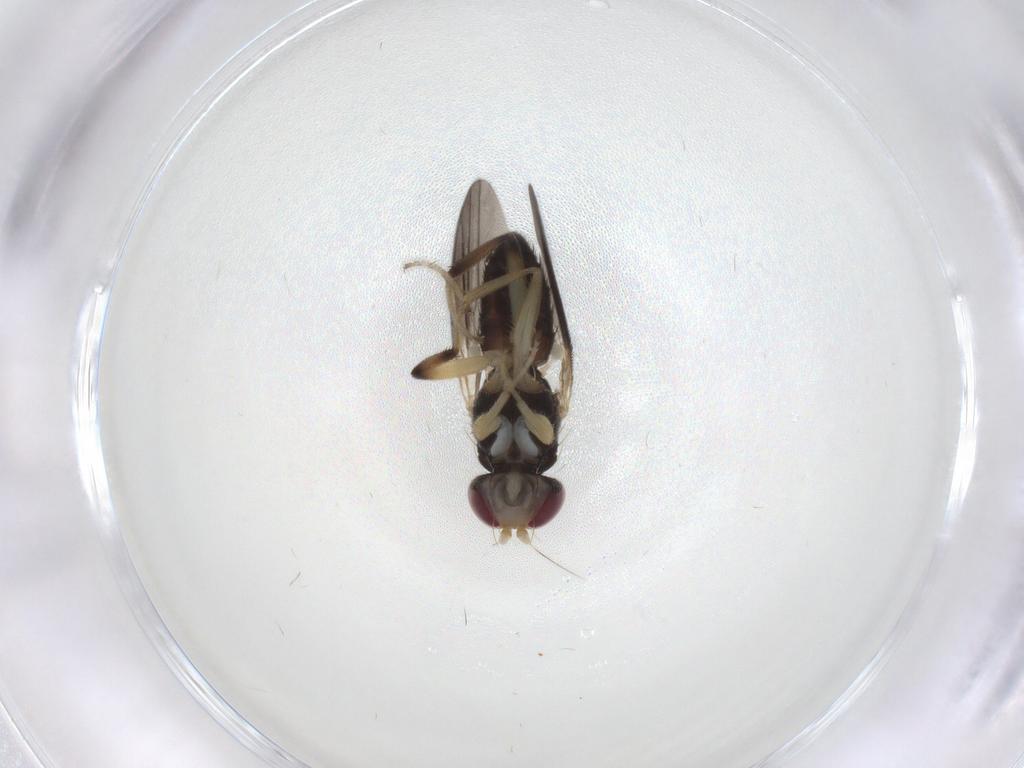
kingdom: Animalia
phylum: Arthropoda
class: Insecta
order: Diptera
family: Clusiidae
